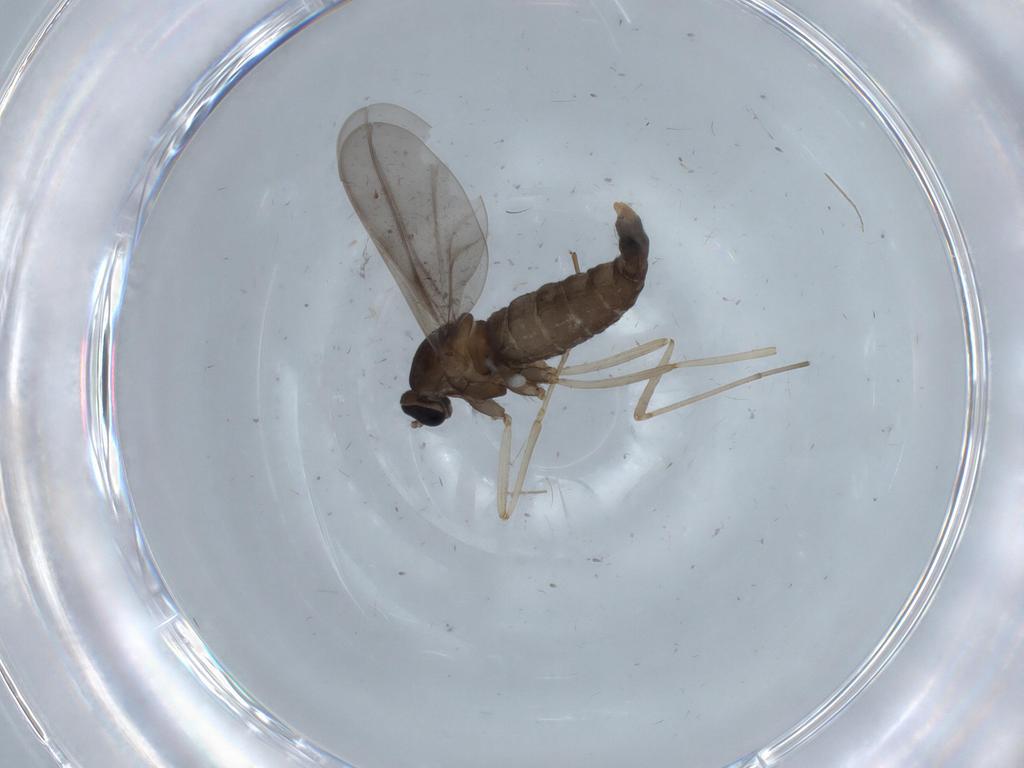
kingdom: Animalia
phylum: Arthropoda
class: Insecta
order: Diptera
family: Cecidomyiidae
